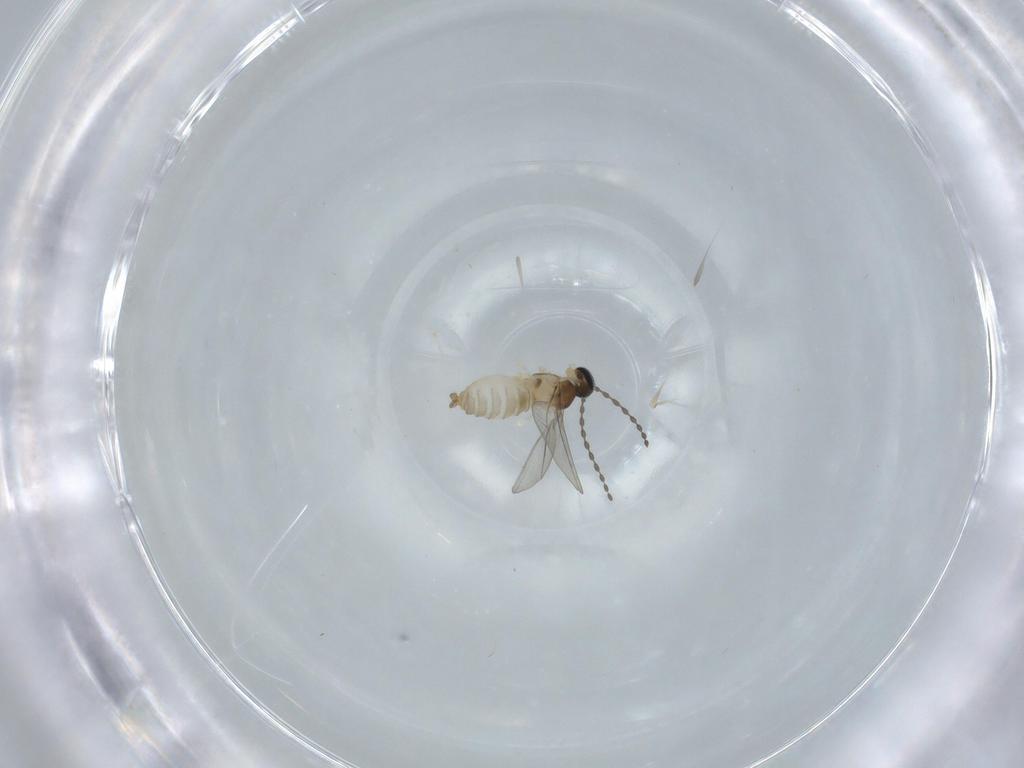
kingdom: Animalia
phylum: Arthropoda
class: Insecta
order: Diptera
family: Cecidomyiidae
